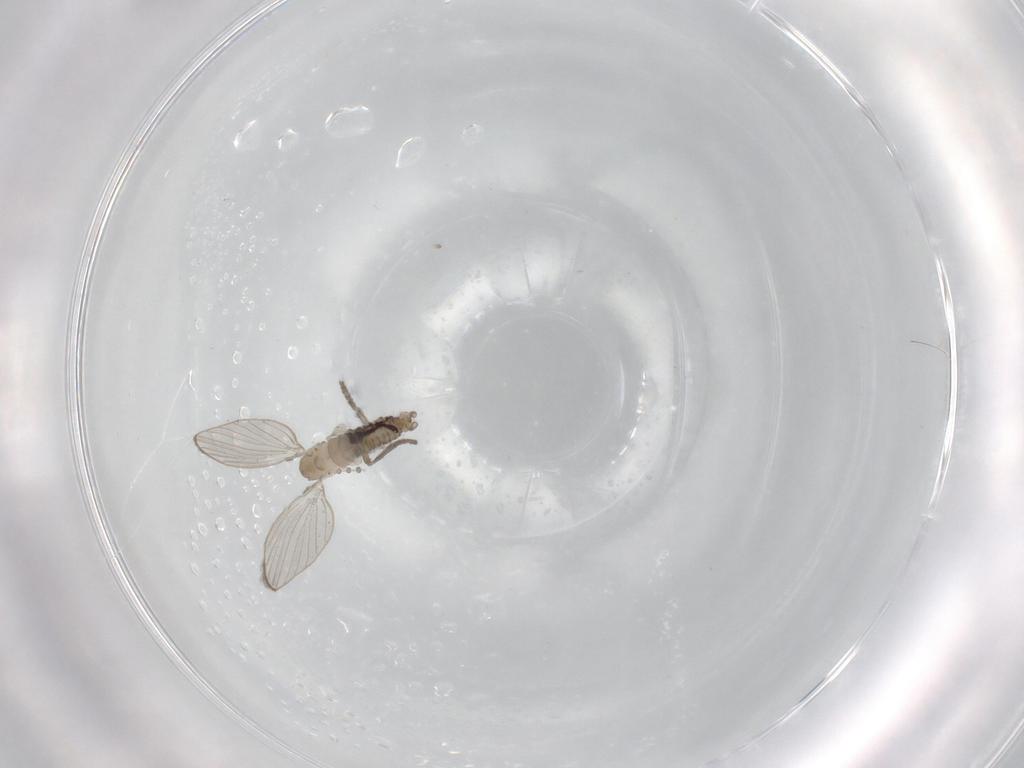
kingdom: Animalia
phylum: Arthropoda
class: Insecta
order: Diptera
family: Psychodidae
